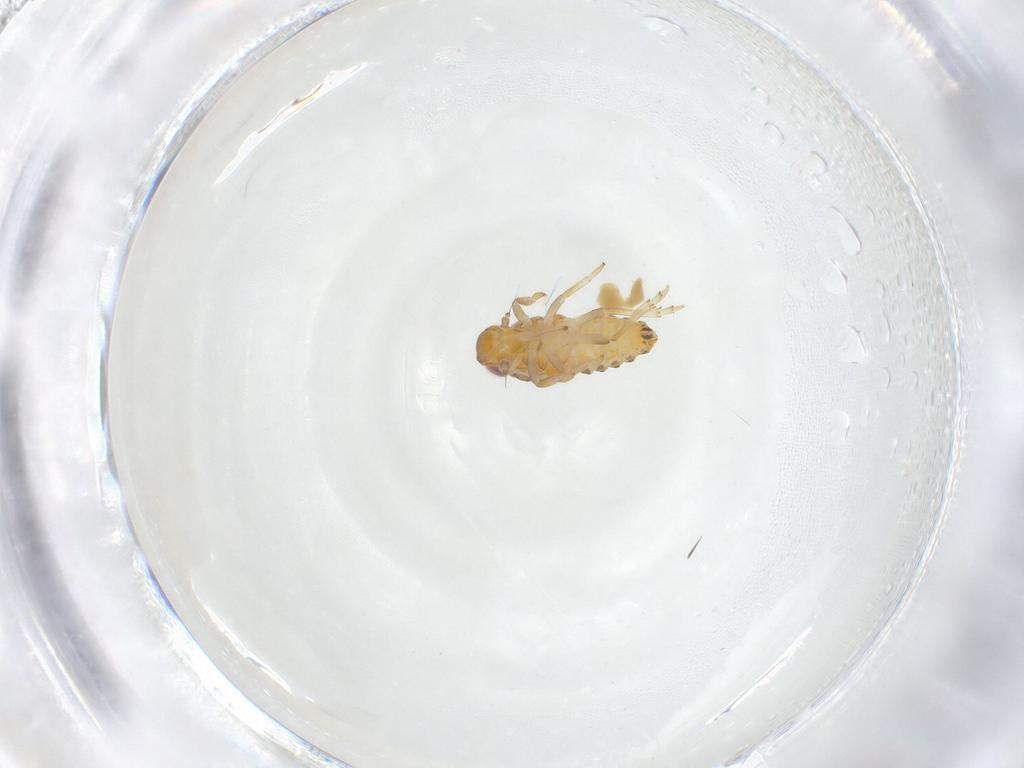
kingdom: Animalia
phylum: Arthropoda
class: Insecta
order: Hemiptera
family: Issidae
